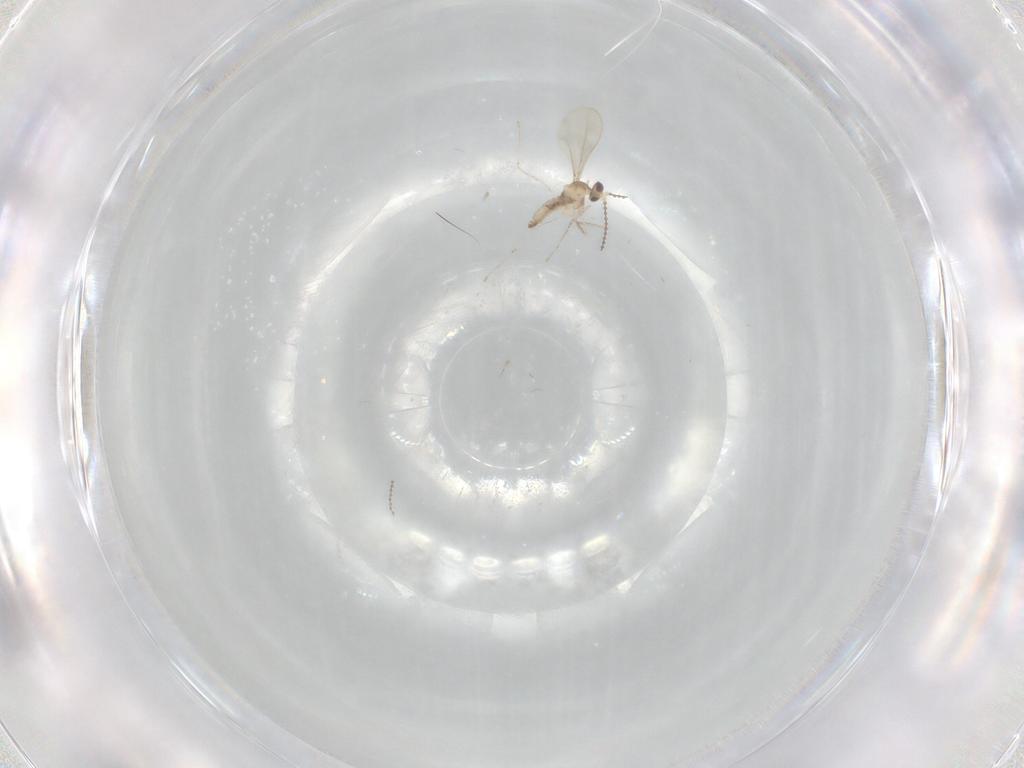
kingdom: Animalia
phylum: Arthropoda
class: Insecta
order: Diptera
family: Cecidomyiidae
